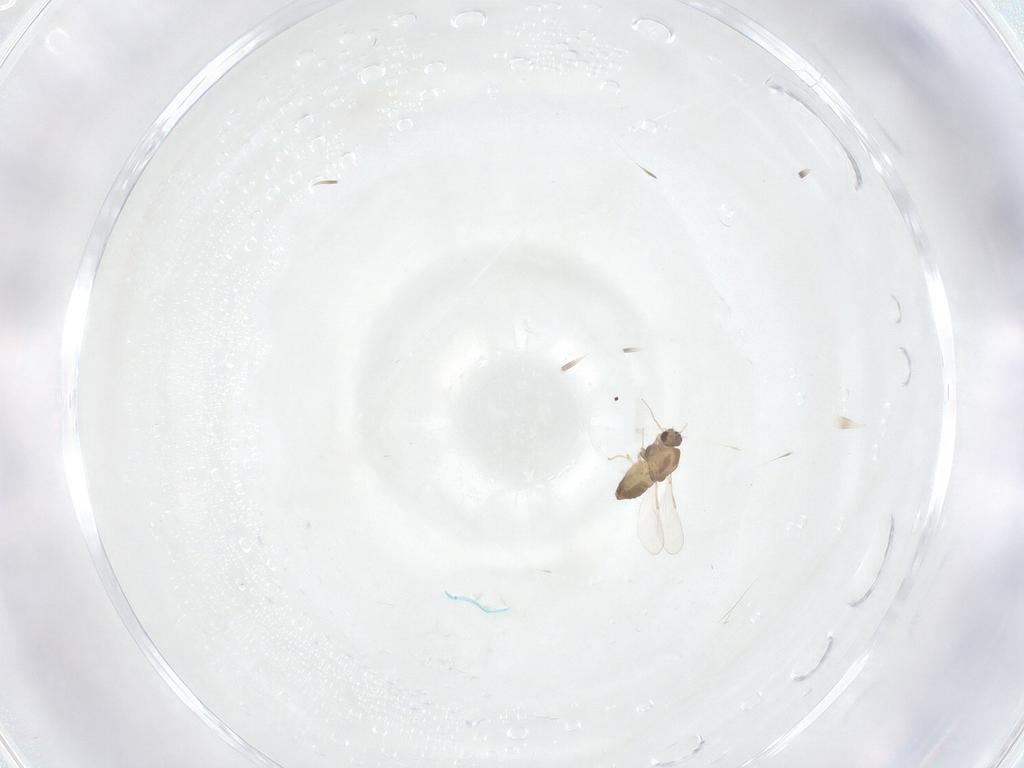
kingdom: Animalia
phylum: Arthropoda
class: Insecta
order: Diptera
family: Chironomidae
